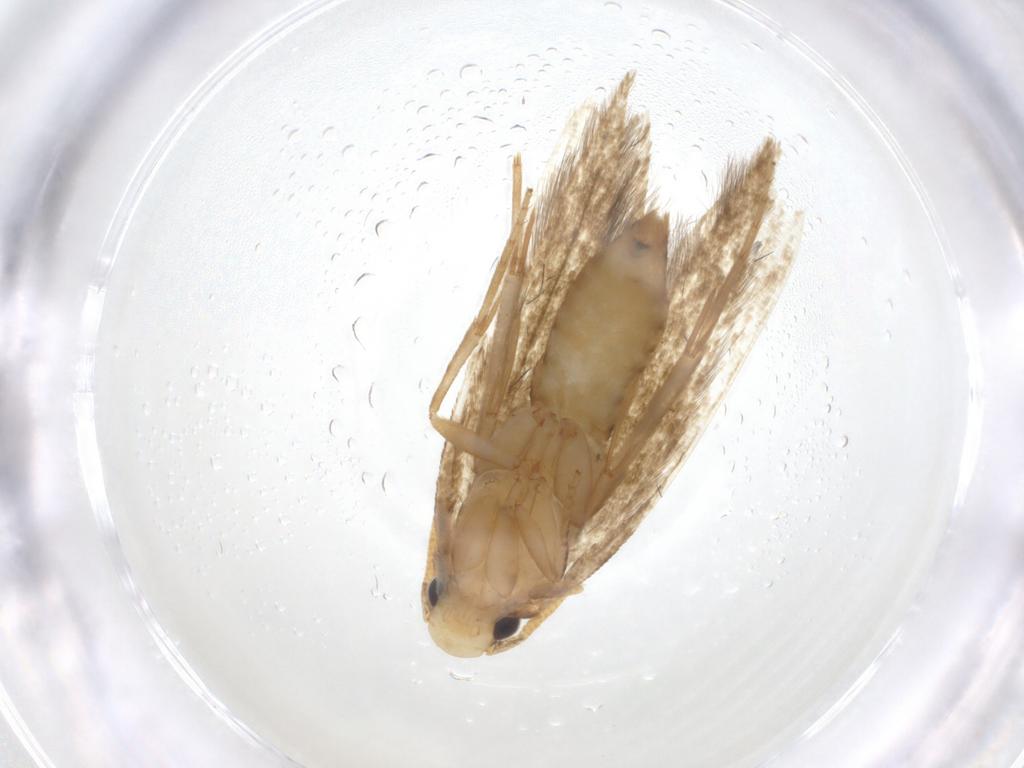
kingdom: Animalia
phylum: Arthropoda
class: Insecta
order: Lepidoptera
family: Tineidae
